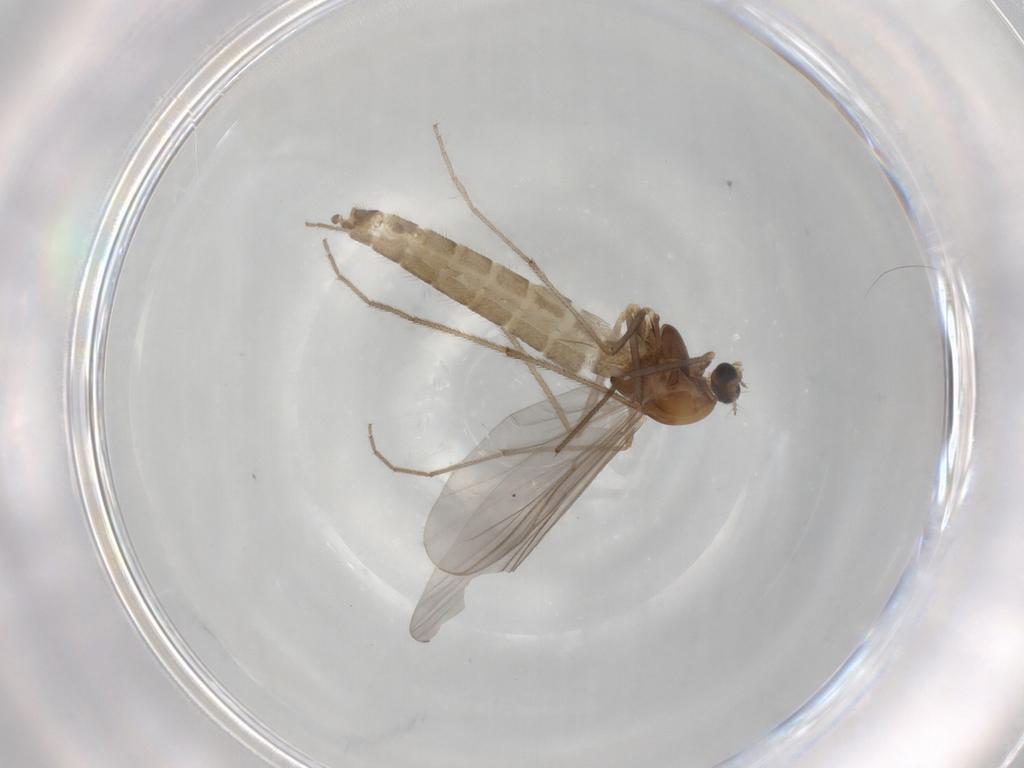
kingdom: Animalia
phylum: Arthropoda
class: Insecta
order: Diptera
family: Chironomidae
